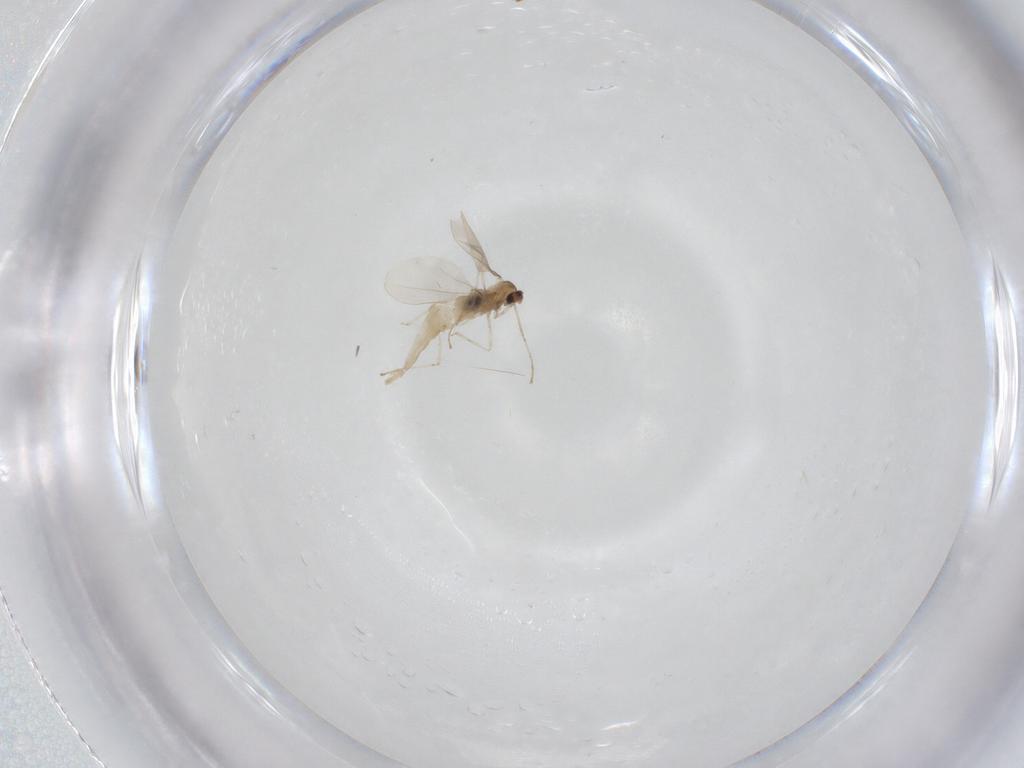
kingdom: Animalia
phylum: Arthropoda
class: Insecta
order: Diptera
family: Cecidomyiidae
